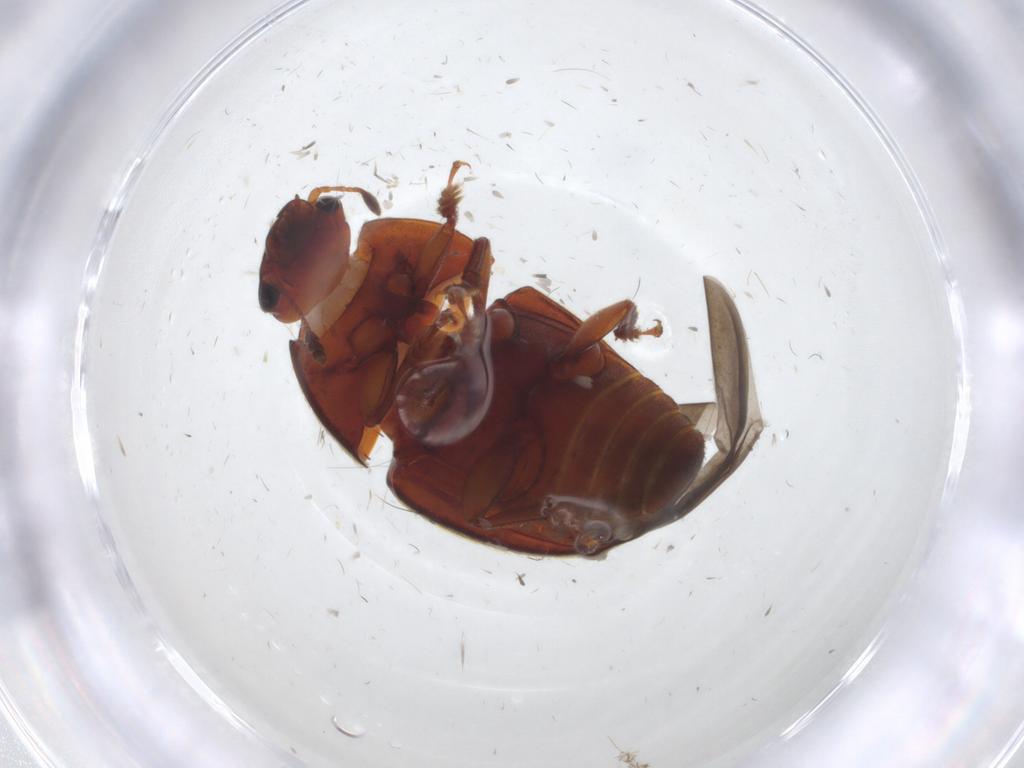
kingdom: Animalia
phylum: Arthropoda
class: Insecta
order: Coleoptera
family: Nitidulidae
